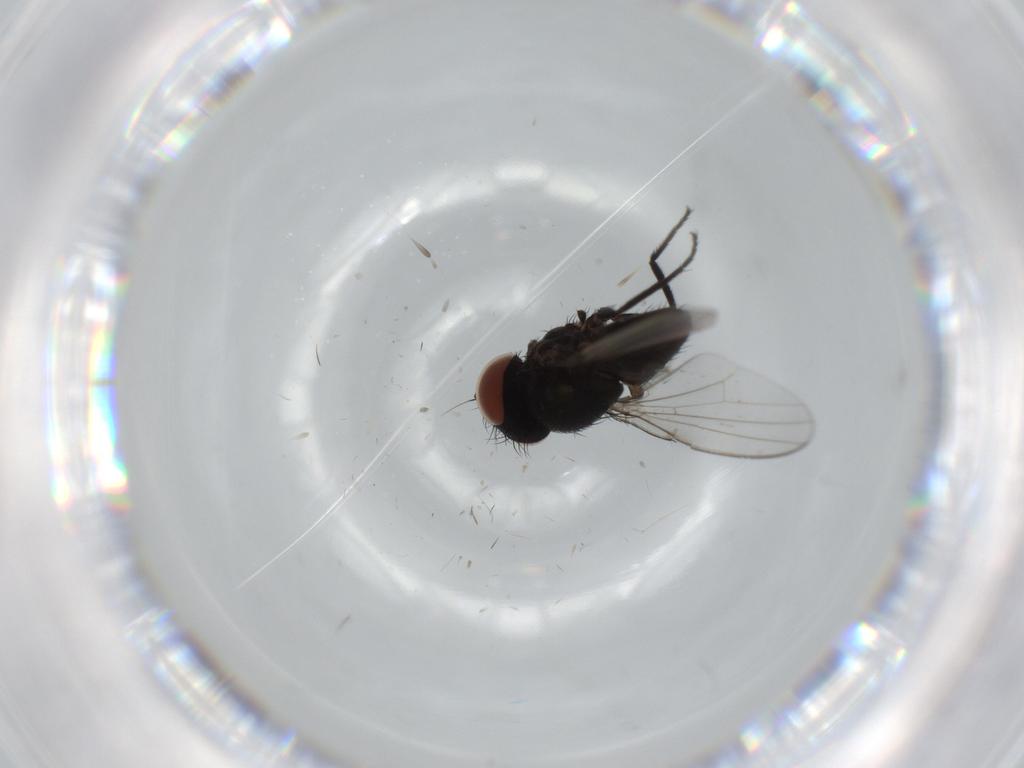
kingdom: Animalia
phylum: Arthropoda
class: Insecta
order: Diptera
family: Milichiidae
